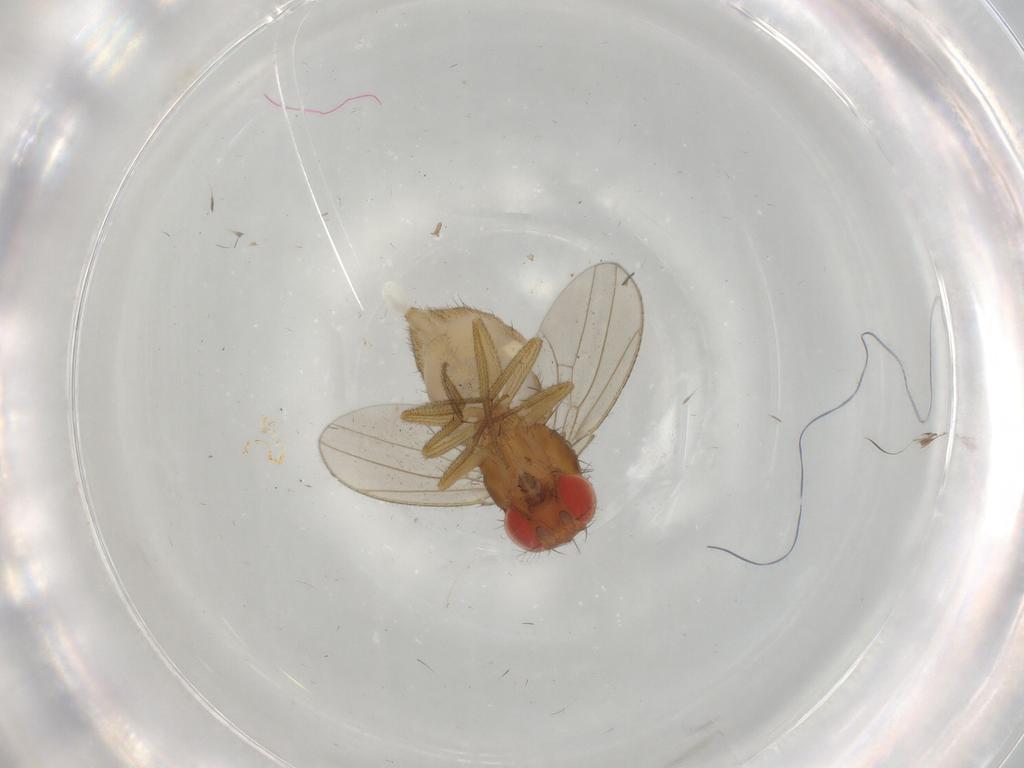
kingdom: Animalia
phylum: Arthropoda
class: Insecta
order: Diptera
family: Drosophilidae
